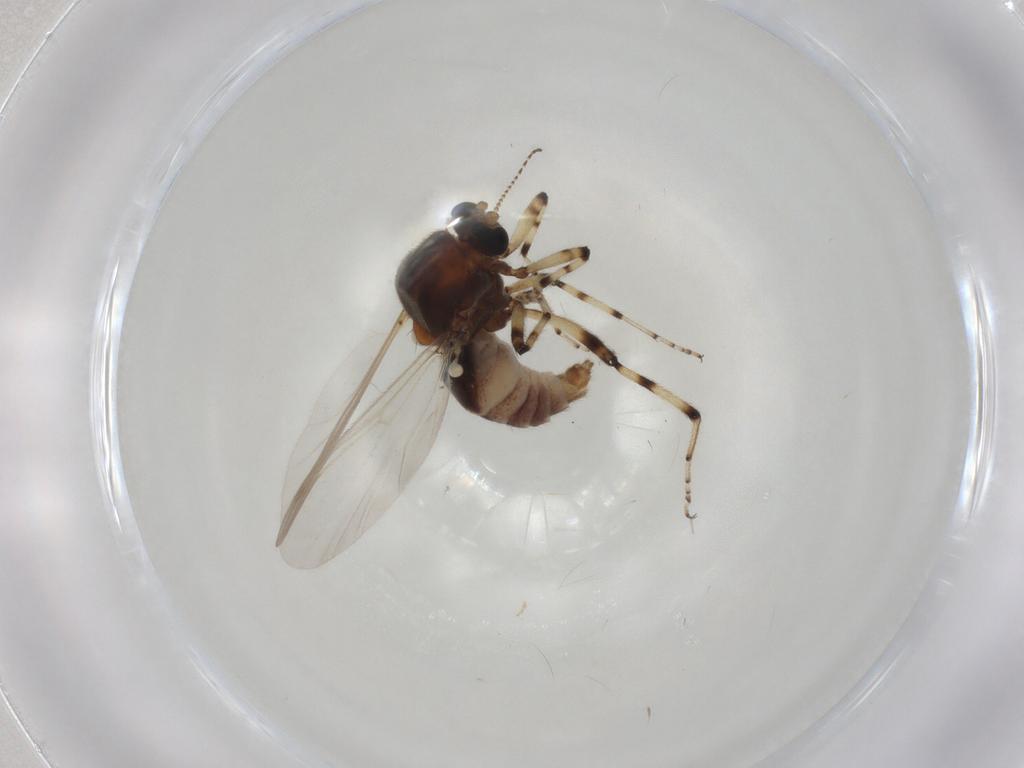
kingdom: Animalia
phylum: Arthropoda
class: Insecta
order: Diptera
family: Ceratopogonidae
